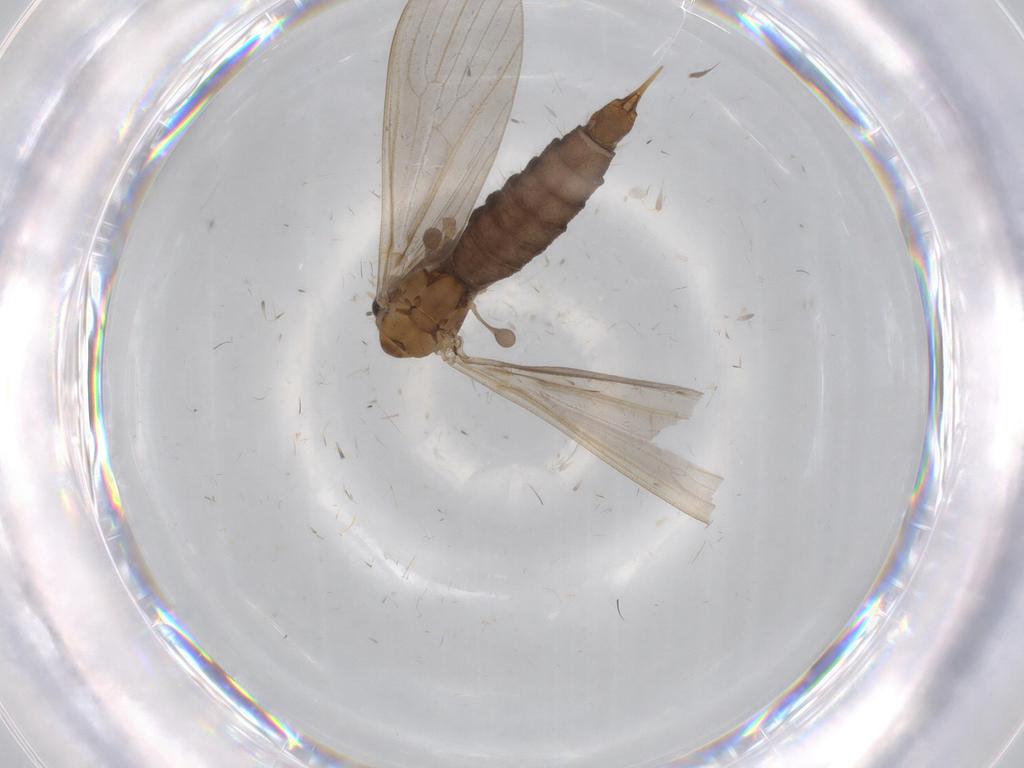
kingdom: Animalia
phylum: Arthropoda
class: Insecta
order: Diptera
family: Limoniidae
